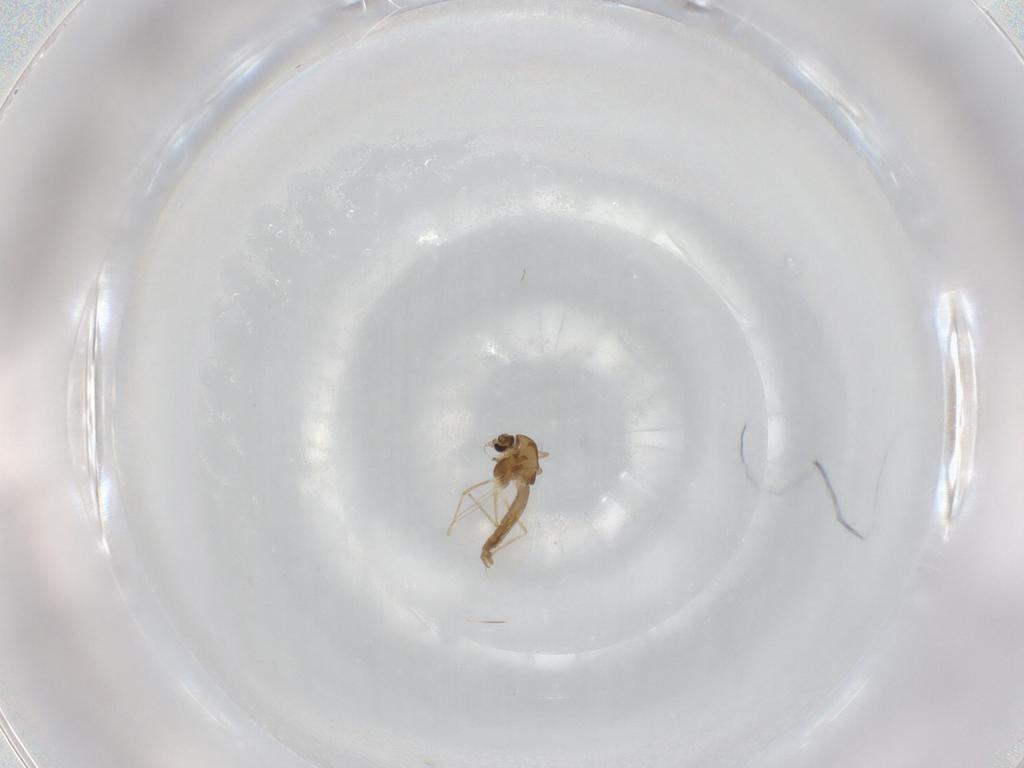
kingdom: Animalia
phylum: Arthropoda
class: Insecta
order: Diptera
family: Chironomidae
